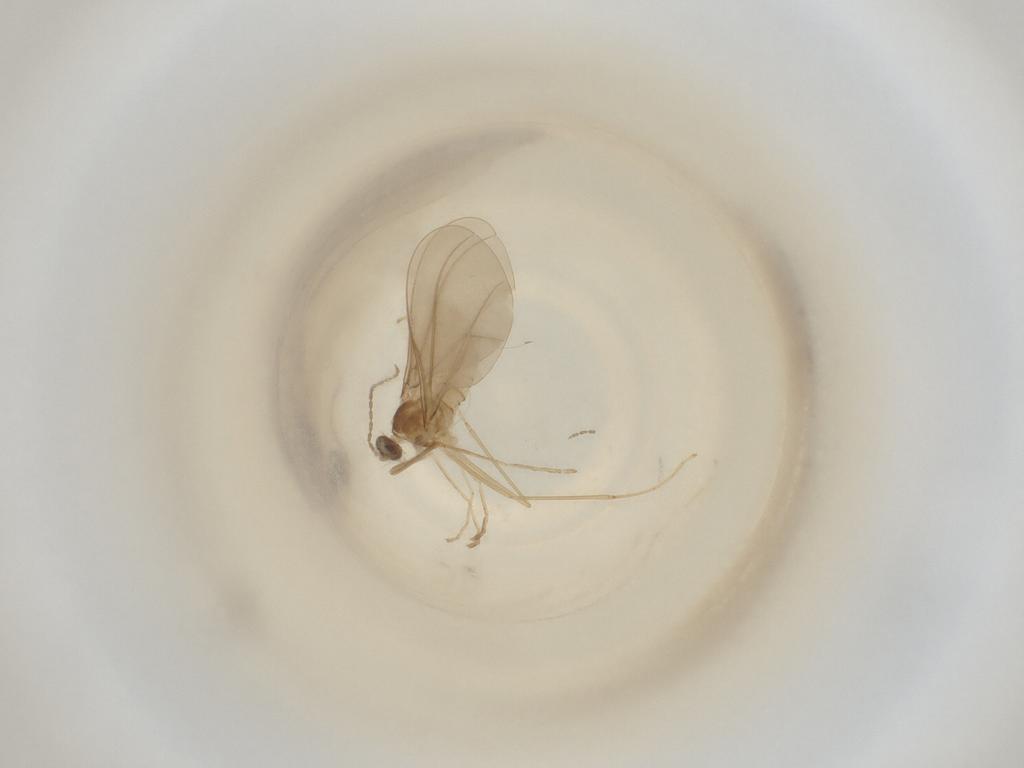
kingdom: Animalia
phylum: Arthropoda
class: Insecta
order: Diptera
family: Cecidomyiidae
